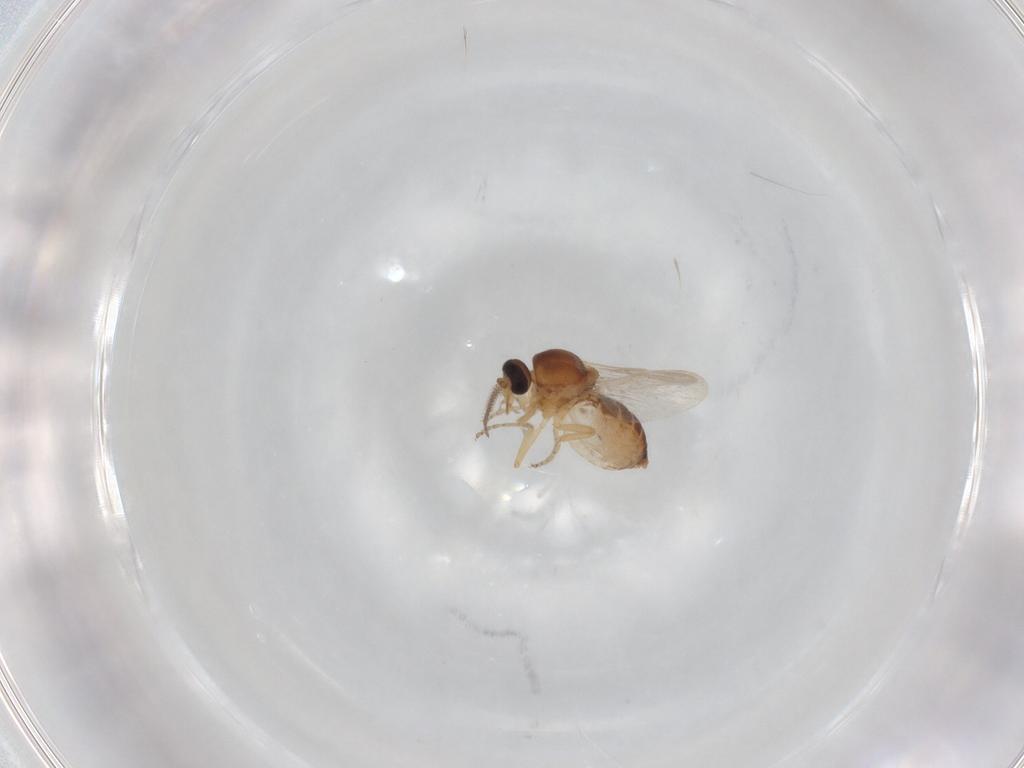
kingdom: Animalia
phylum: Arthropoda
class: Insecta
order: Diptera
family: Ceratopogonidae
